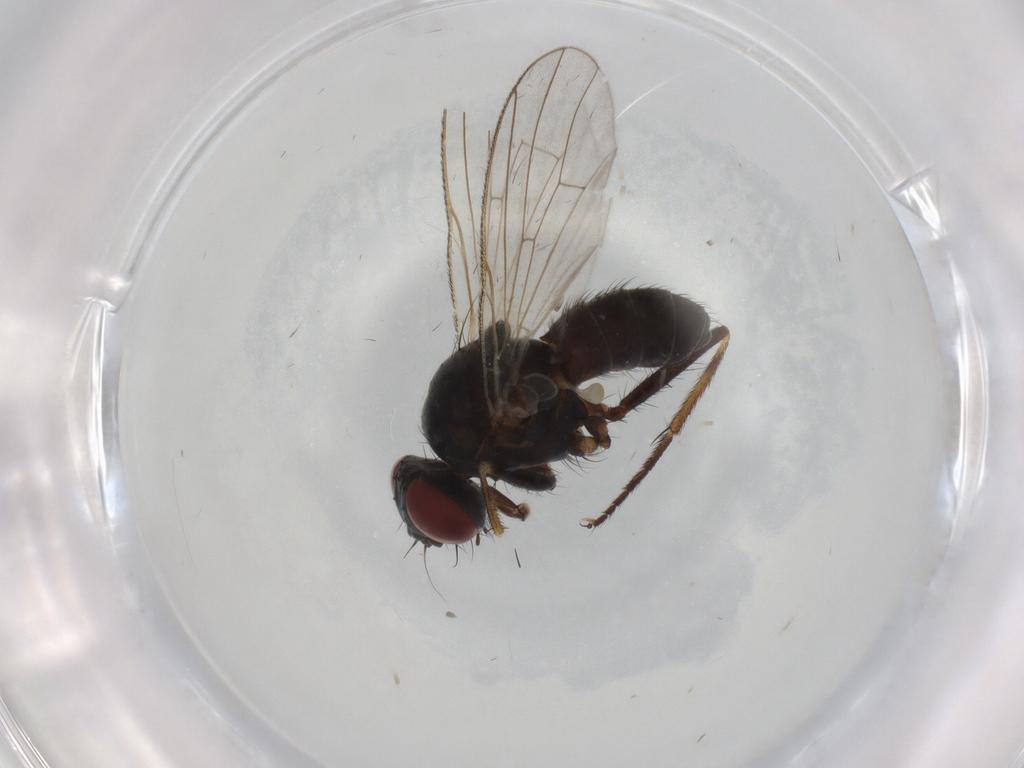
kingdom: Animalia
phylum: Arthropoda
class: Insecta
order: Diptera
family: Chloropidae
